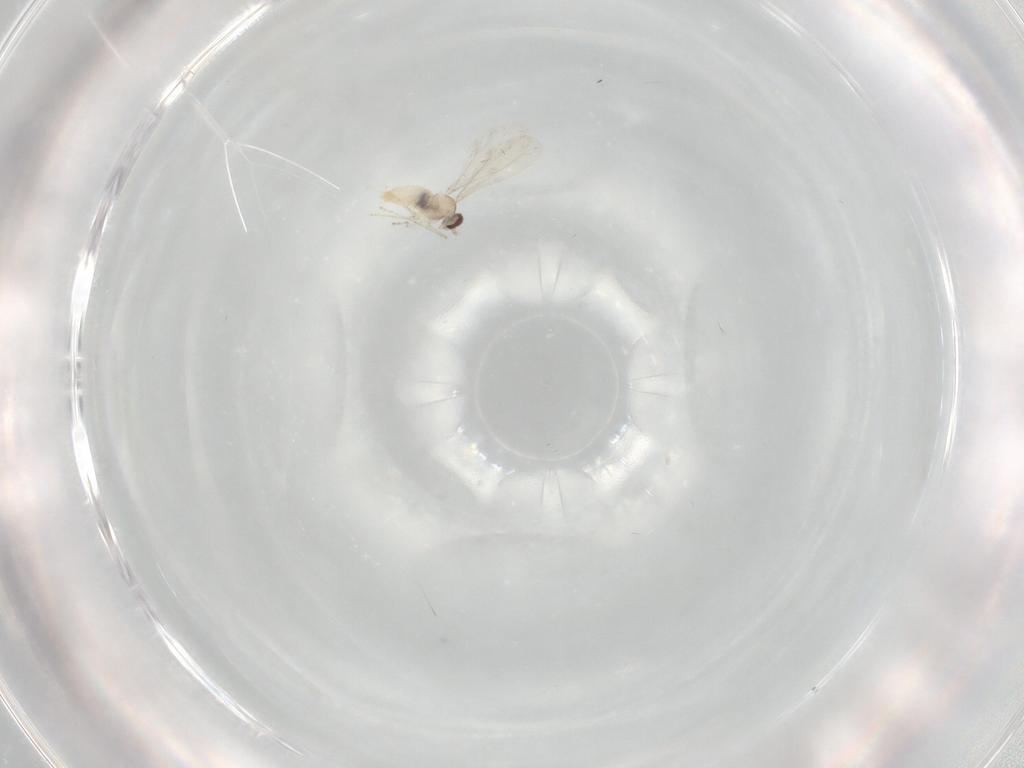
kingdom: Animalia
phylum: Arthropoda
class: Insecta
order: Diptera
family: Cecidomyiidae
